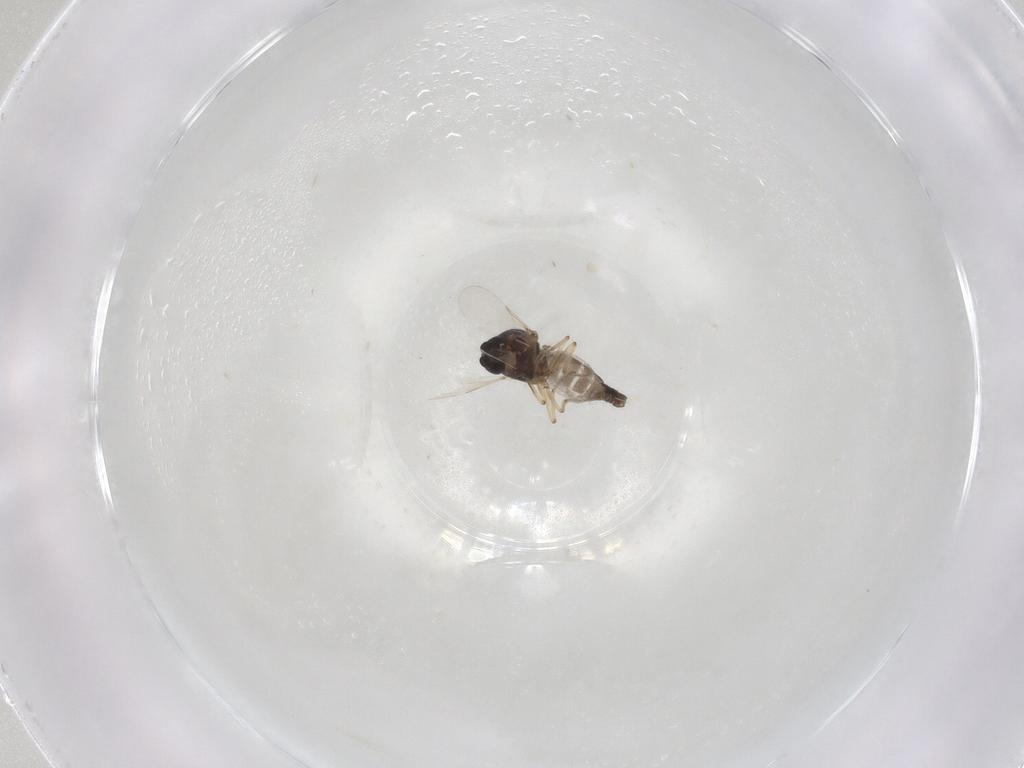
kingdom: Animalia
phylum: Arthropoda
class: Insecta
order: Diptera
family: Ceratopogonidae
